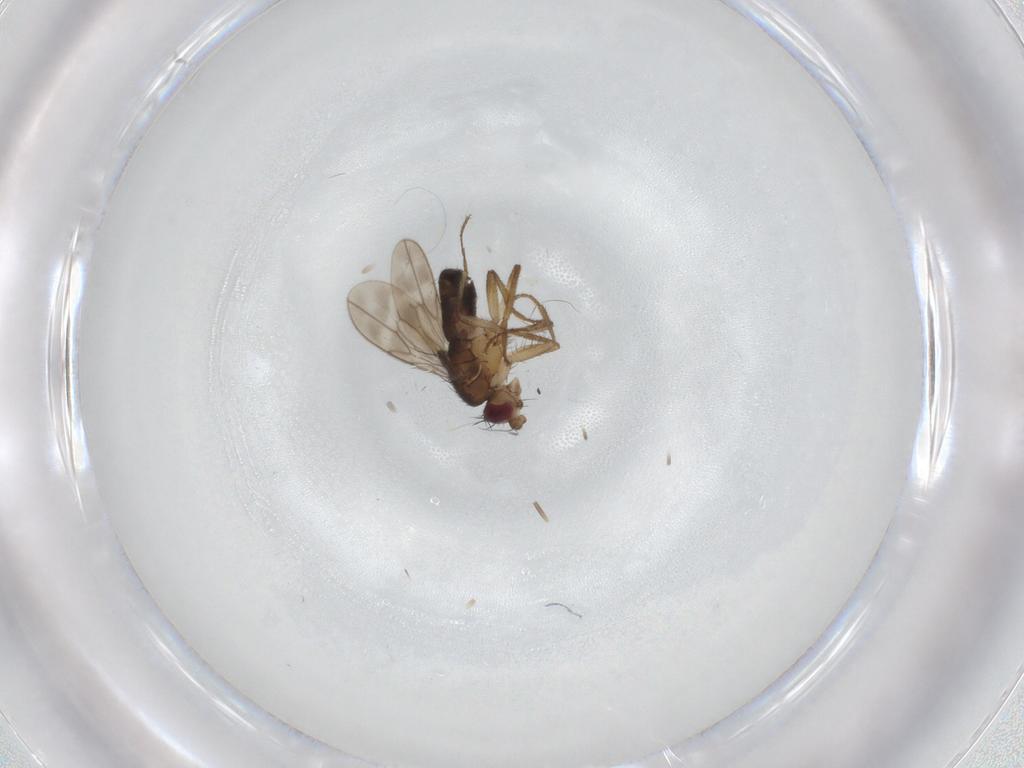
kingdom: Animalia
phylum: Arthropoda
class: Insecta
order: Diptera
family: Sphaeroceridae
